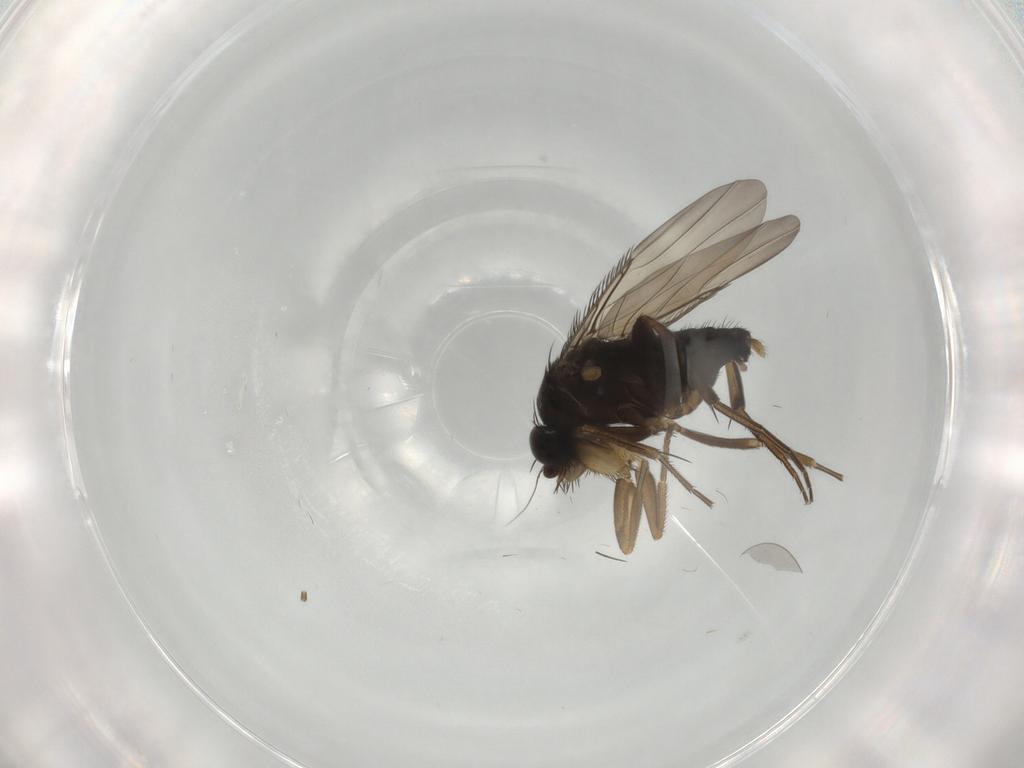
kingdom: Animalia
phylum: Arthropoda
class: Insecta
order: Diptera
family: Phoridae
